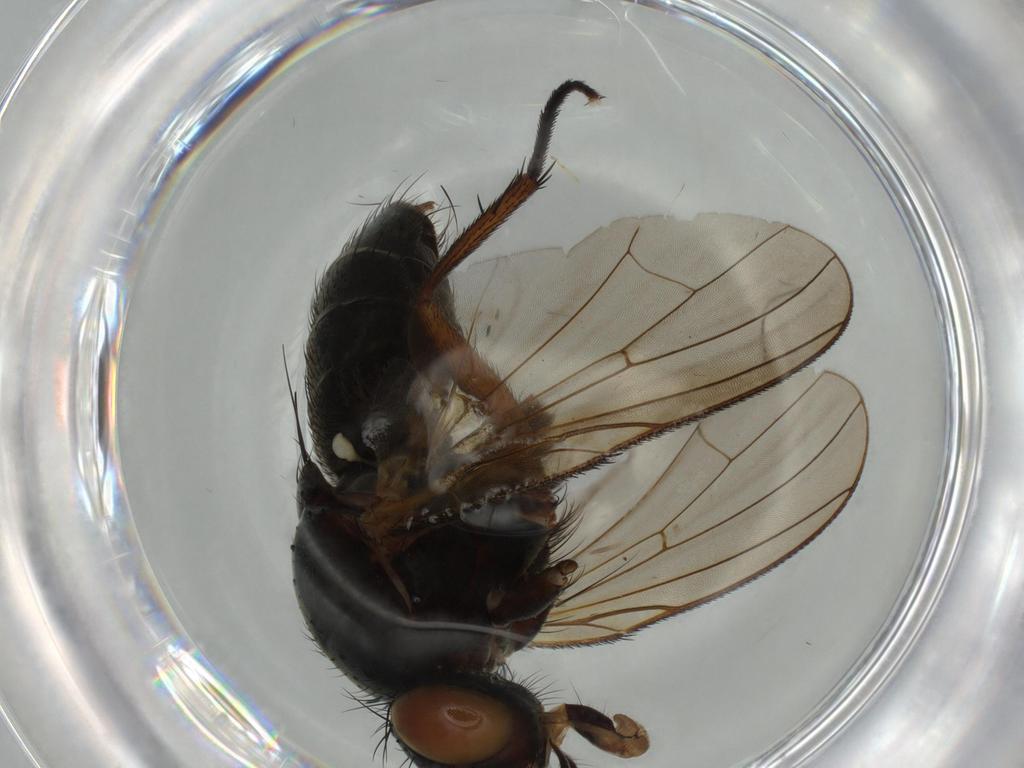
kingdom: Animalia
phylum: Arthropoda
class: Insecta
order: Diptera
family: Anthomyiidae
